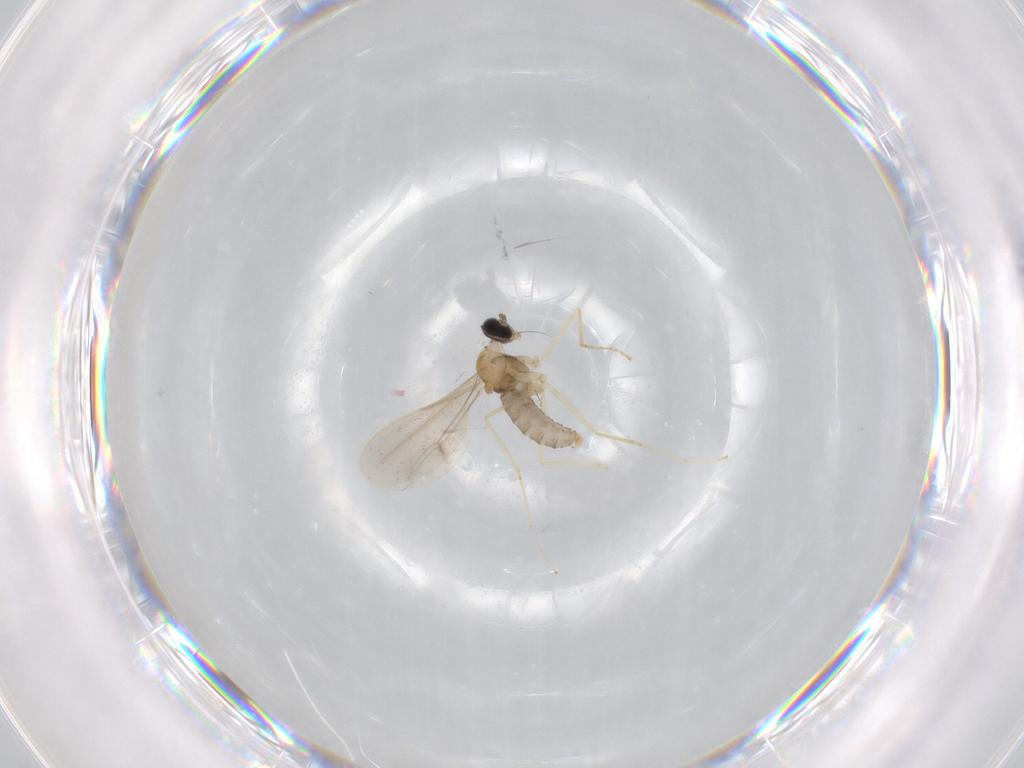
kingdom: Animalia
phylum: Arthropoda
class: Insecta
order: Diptera
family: Cecidomyiidae
